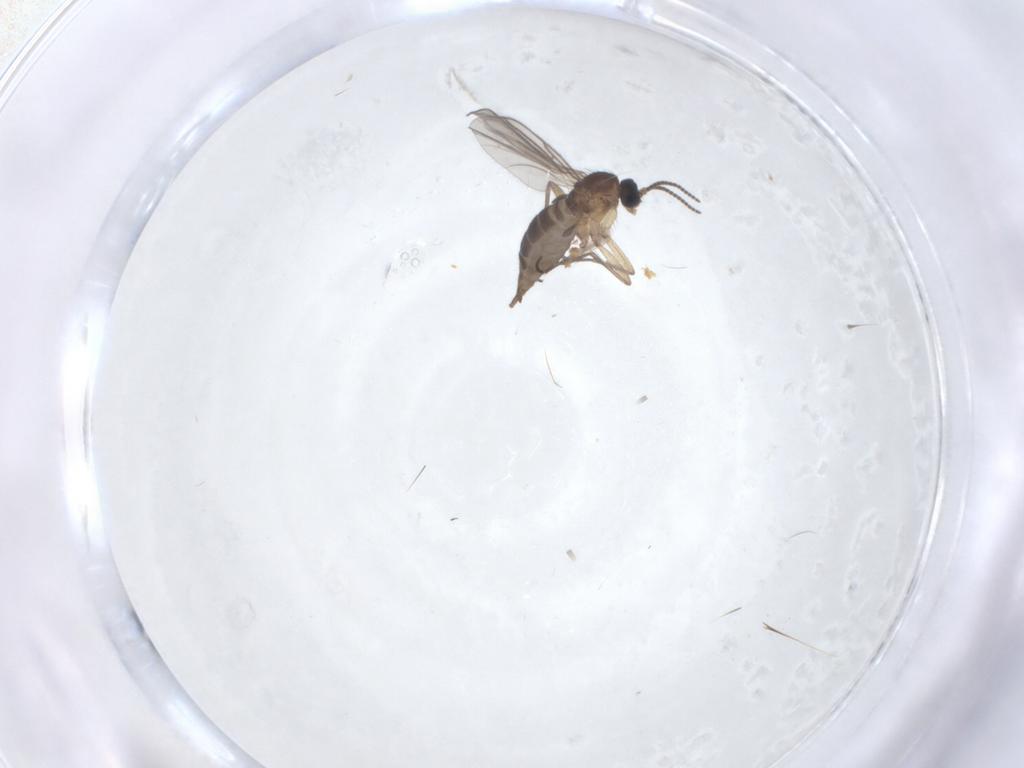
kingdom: Animalia
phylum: Arthropoda
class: Insecta
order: Diptera
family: Sciaridae
